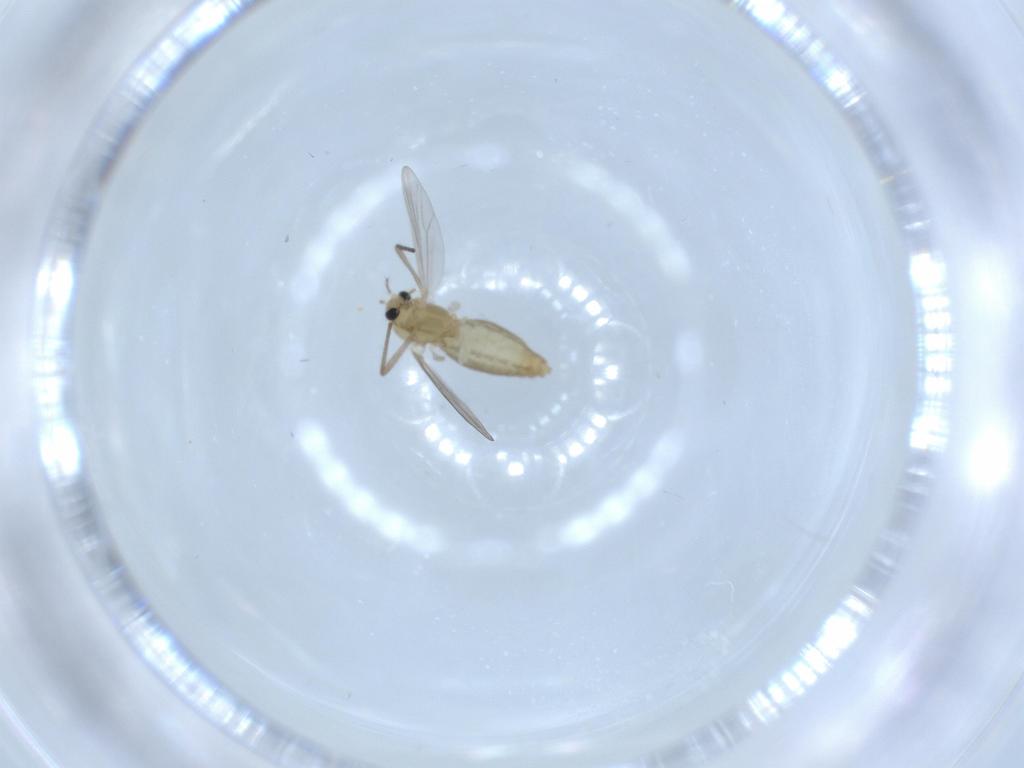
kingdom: Animalia
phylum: Arthropoda
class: Insecta
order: Diptera
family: Chironomidae
